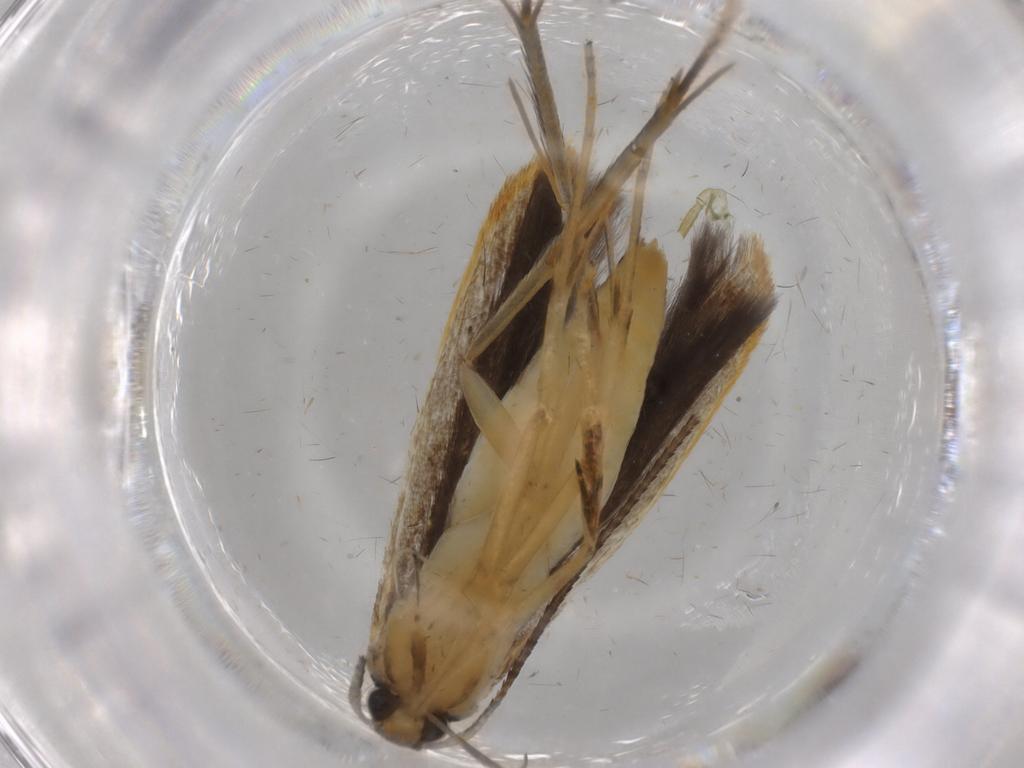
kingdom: Animalia
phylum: Arthropoda
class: Insecta
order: Lepidoptera
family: Pterolonchidae
